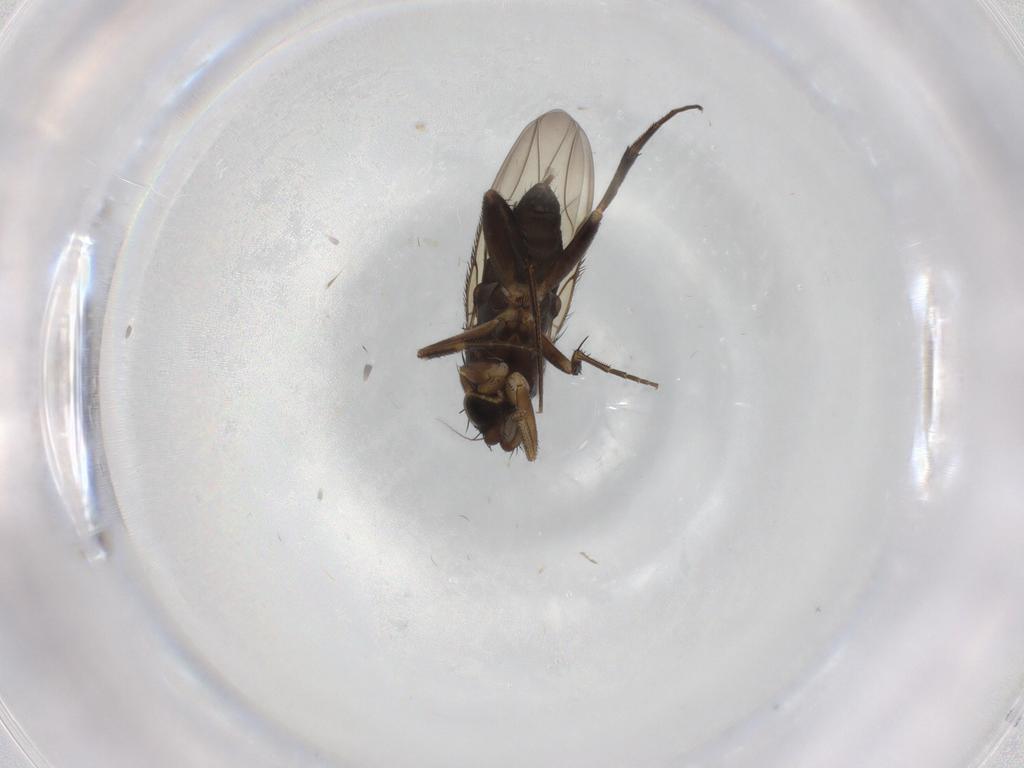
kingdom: Animalia
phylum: Arthropoda
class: Insecta
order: Diptera
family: Phoridae
